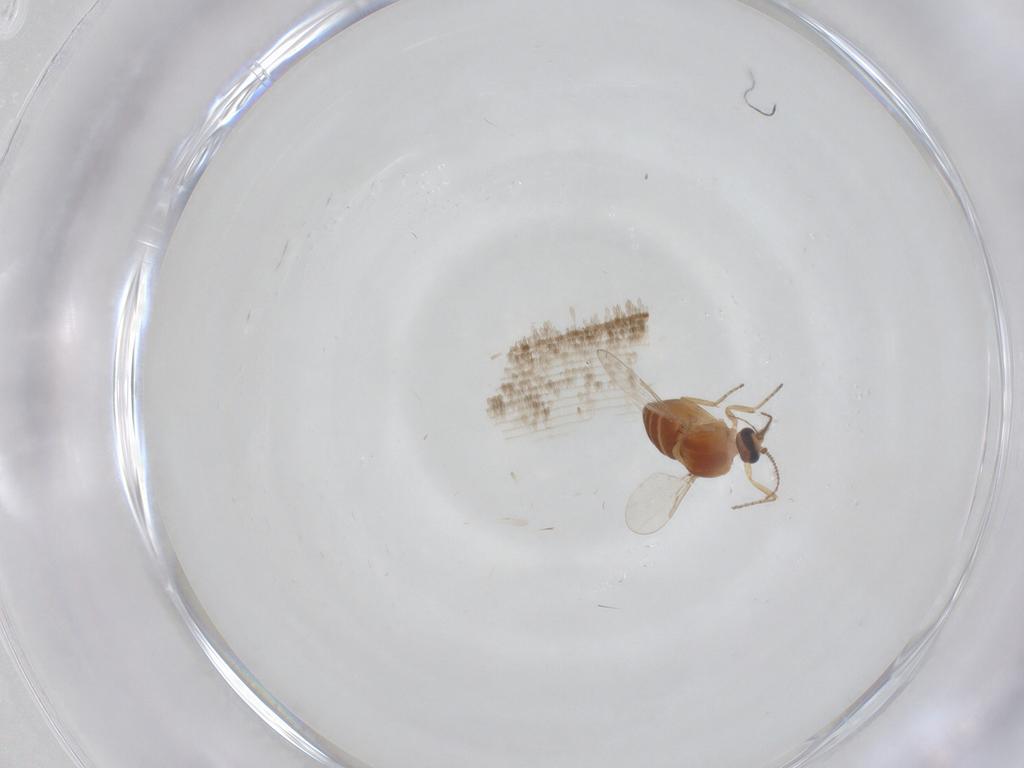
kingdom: Animalia
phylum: Arthropoda
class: Insecta
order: Diptera
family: Ceratopogonidae
